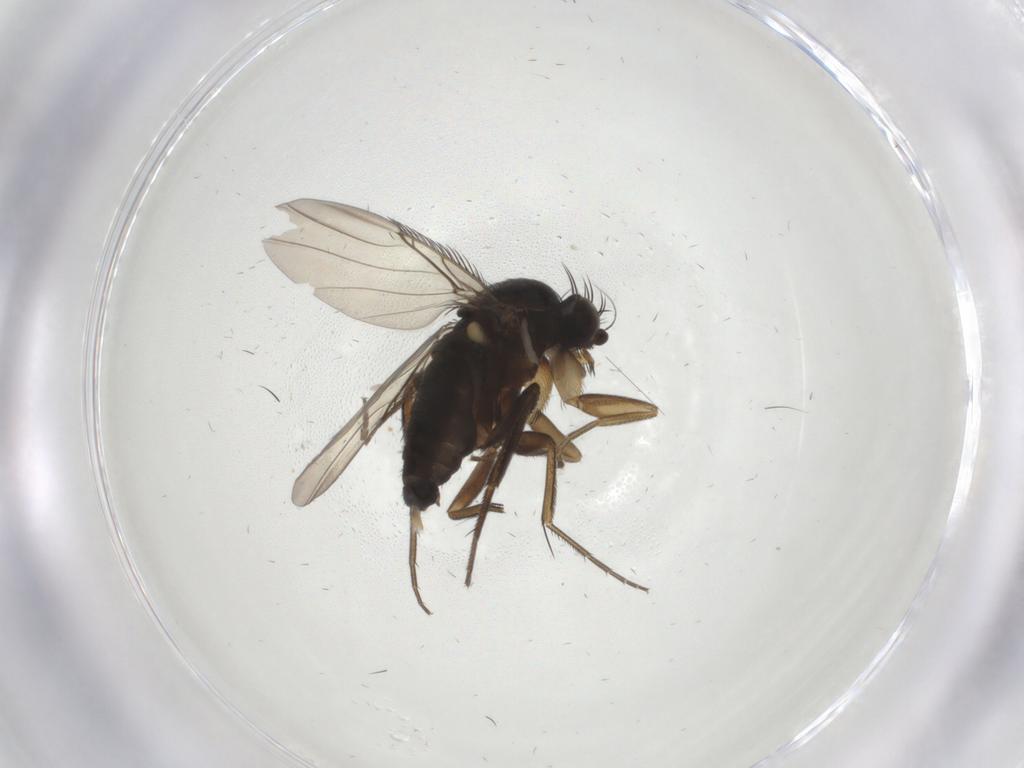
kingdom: Animalia
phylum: Arthropoda
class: Insecta
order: Diptera
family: Phoridae
